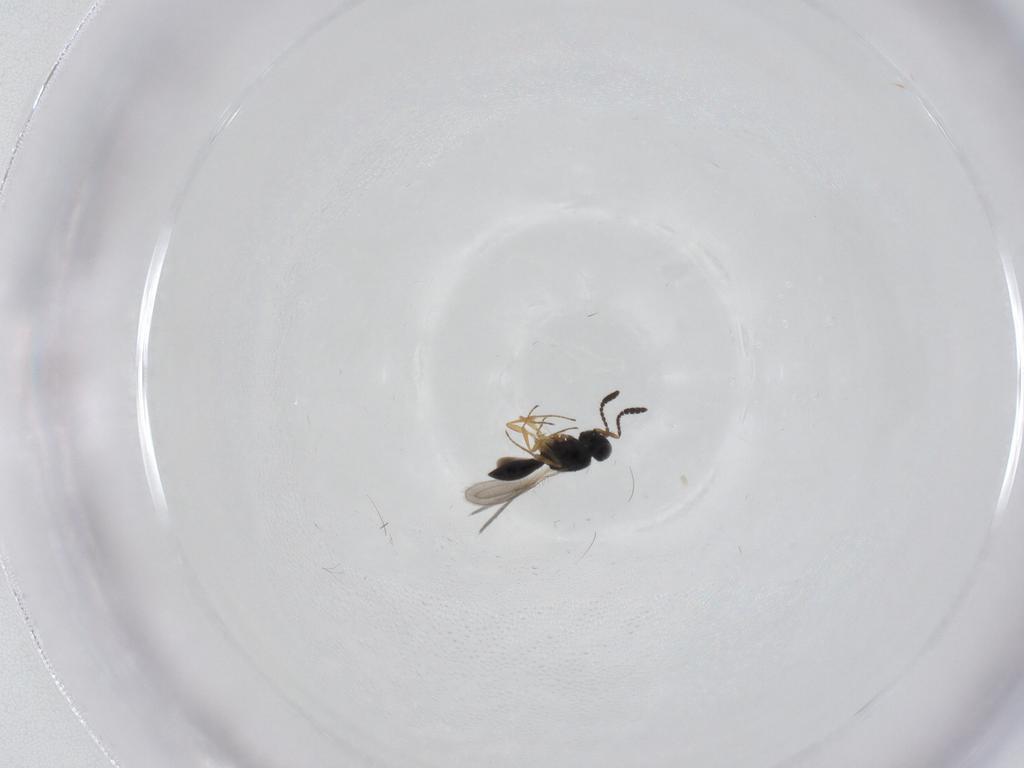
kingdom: Animalia
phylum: Arthropoda
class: Insecta
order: Hymenoptera
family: Scelionidae
